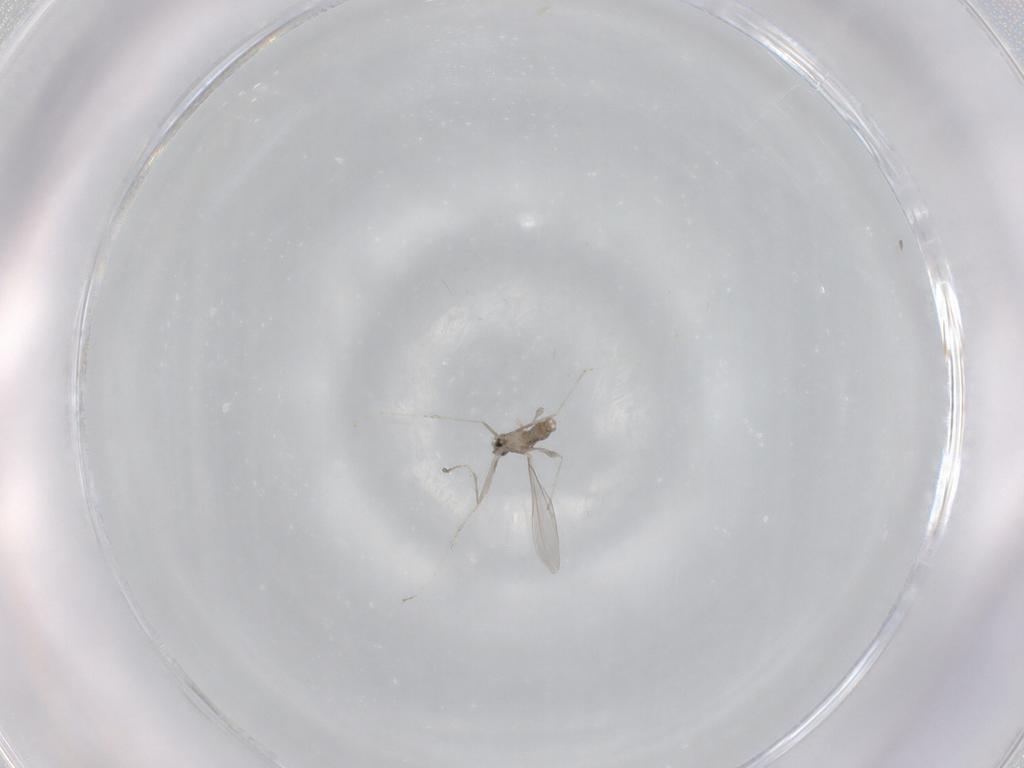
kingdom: Animalia
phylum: Arthropoda
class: Insecta
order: Diptera
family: Cecidomyiidae
